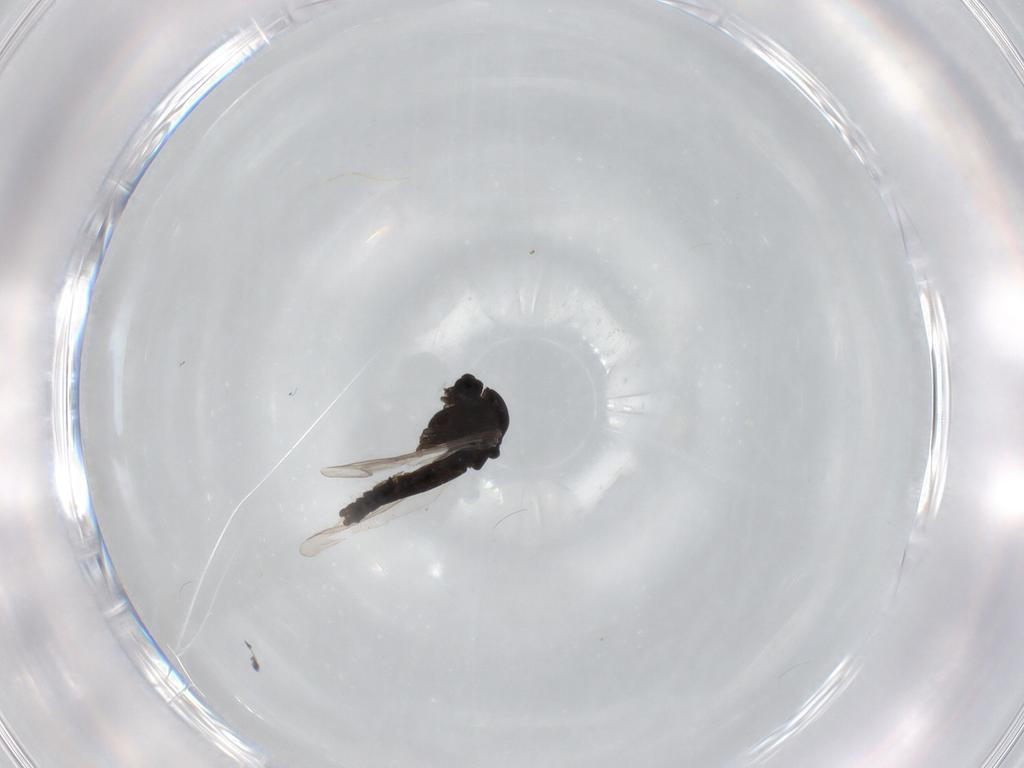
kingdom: Animalia
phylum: Arthropoda
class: Insecta
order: Diptera
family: Chironomidae
